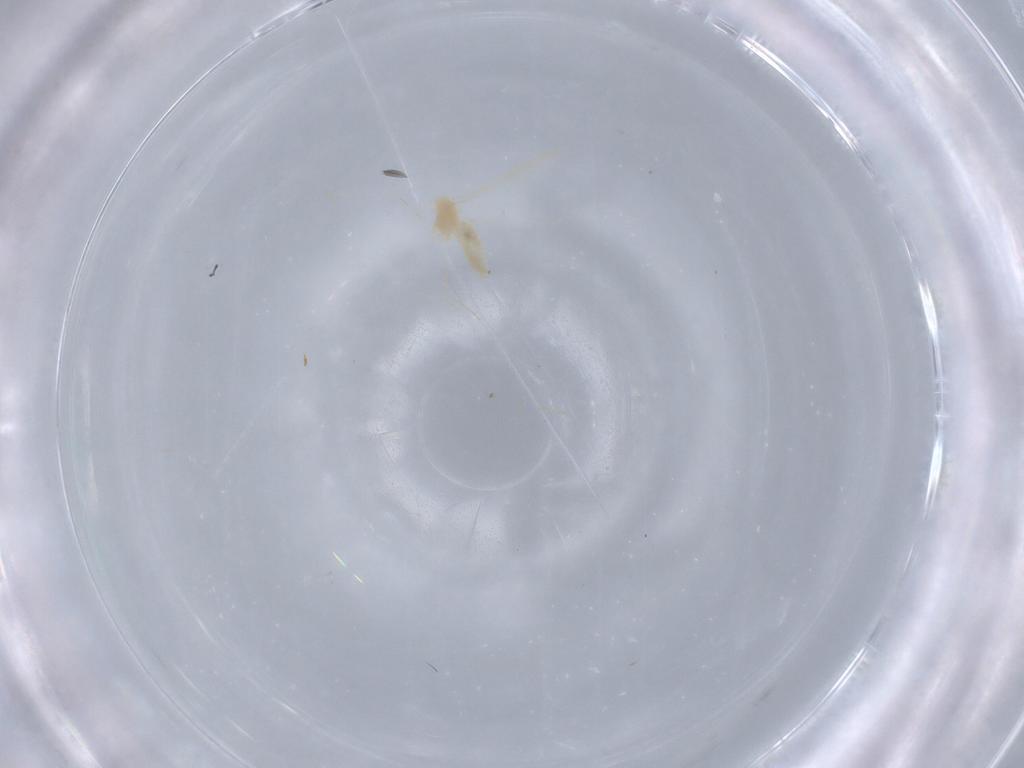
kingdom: Animalia
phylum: Arthropoda
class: Insecta
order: Diptera
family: Cecidomyiidae
